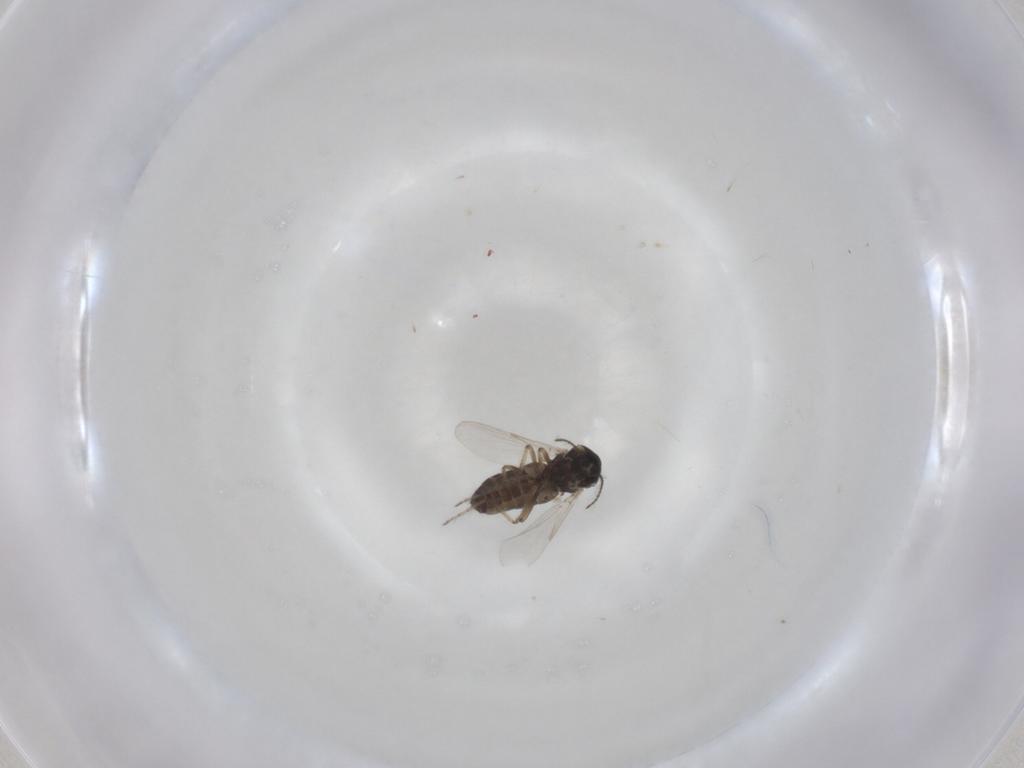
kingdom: Animalia
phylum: Arthropoda
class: Insecta
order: Diptera
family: Ceratopogonidae
